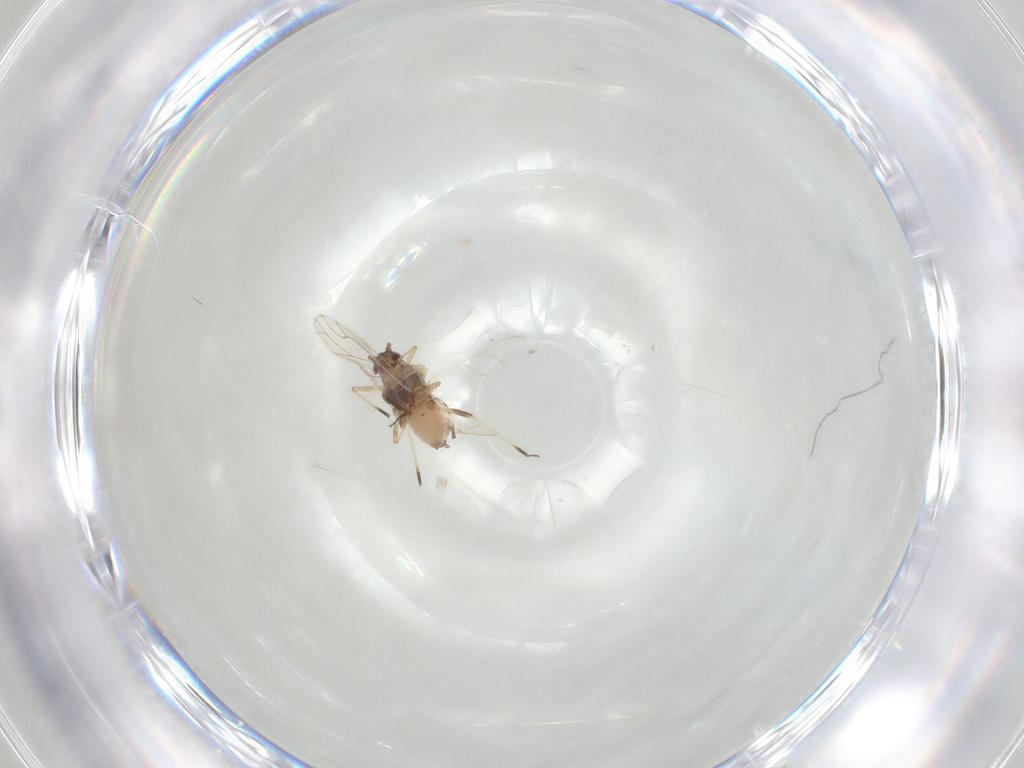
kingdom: Animalia
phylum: Arthropoda
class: Insecta
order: Hemiptera
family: Aphididae
